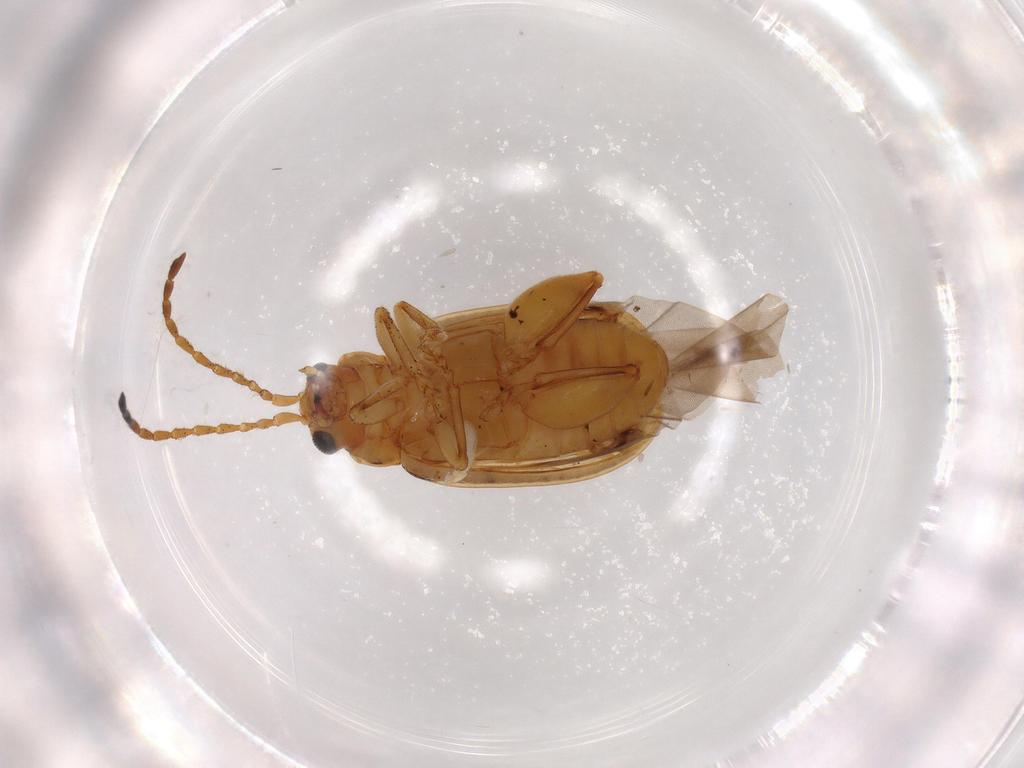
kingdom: Animalia
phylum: Arthropoda
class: Insecta
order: Coleoptera
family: Chrysomelidae
